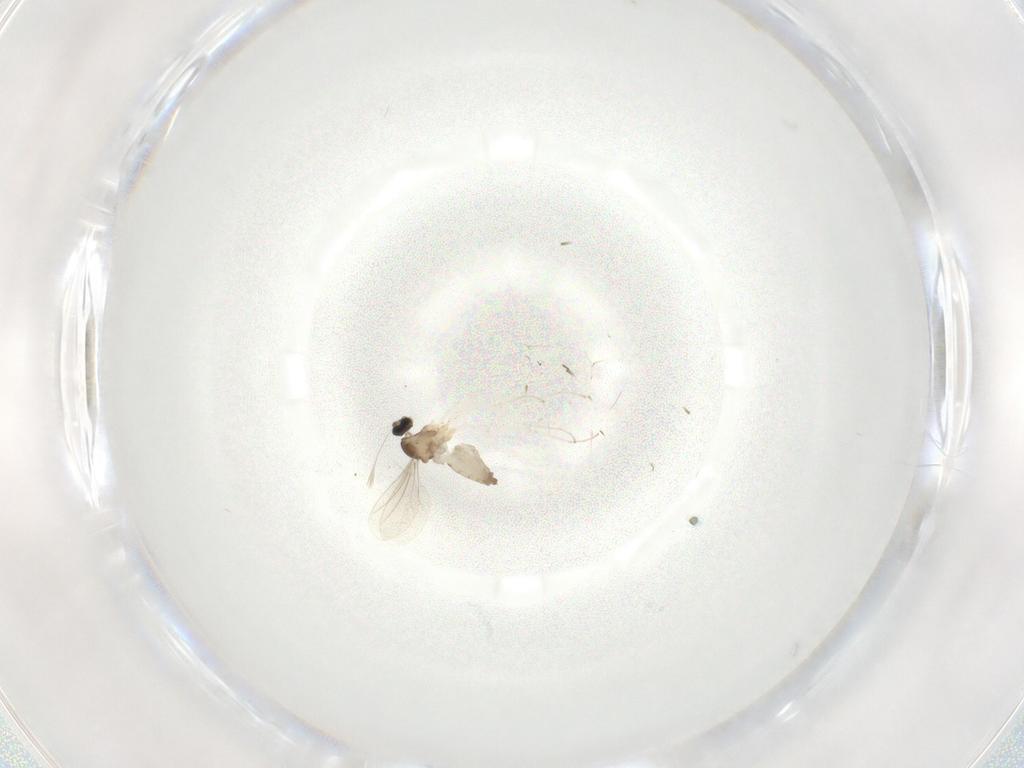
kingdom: Animalia
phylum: Arthropoda
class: Insecta
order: Diptera
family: Cecidomyiidae
